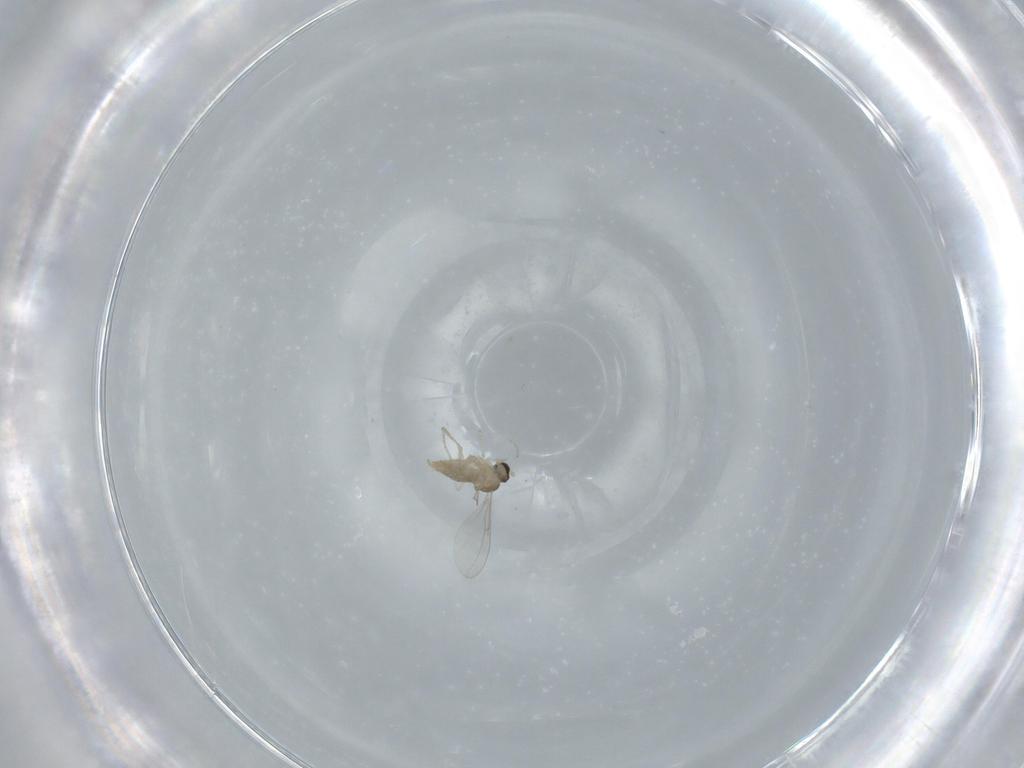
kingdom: Animalia
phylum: Arthropoda
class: Insecta
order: Diptera
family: Cecidomyiidae
